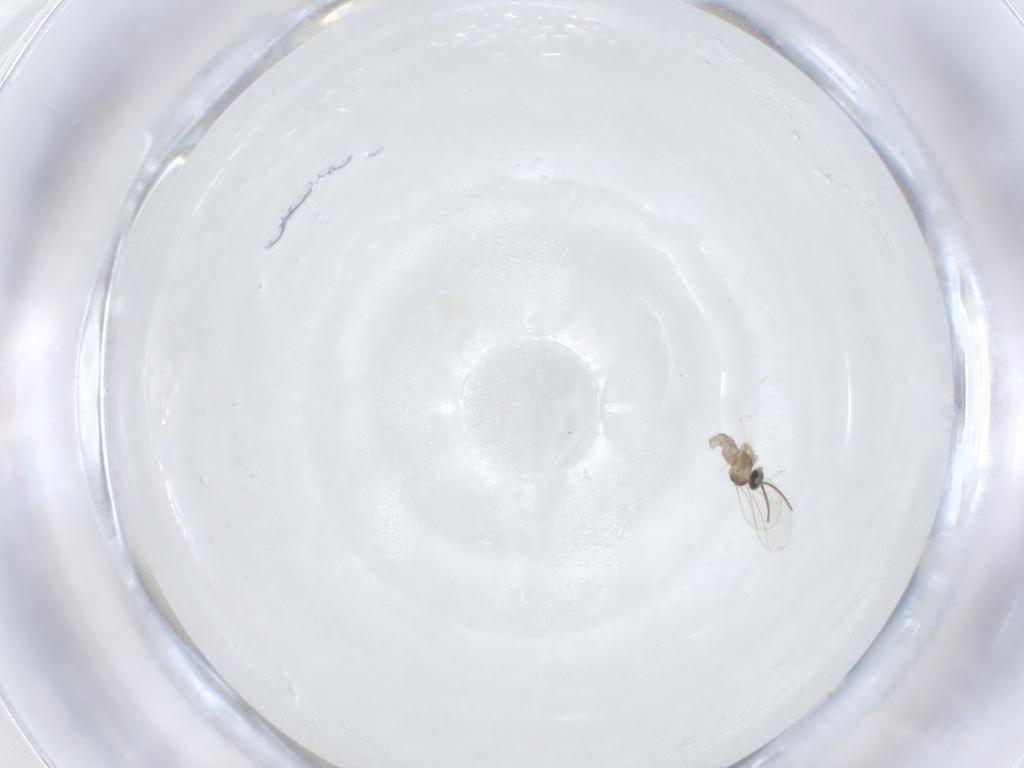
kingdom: Animalia
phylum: Arthropoda
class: Insecta
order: Diptera
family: Cecidomyiidae
